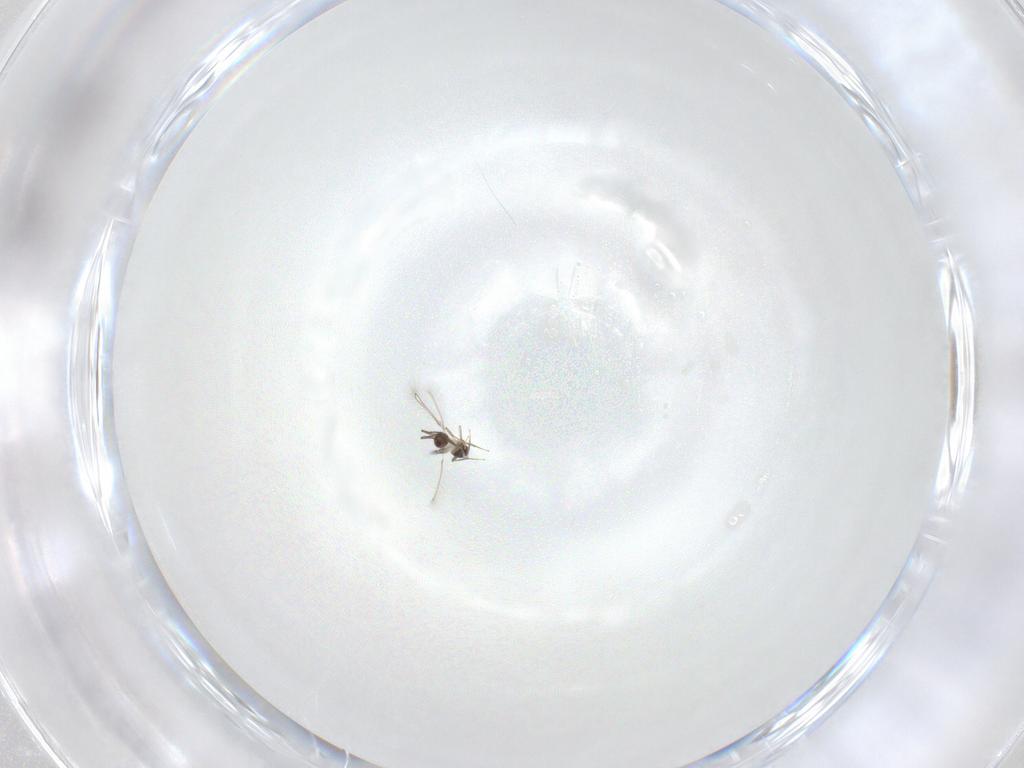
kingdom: Animalia
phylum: Arthropoda
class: Insecta
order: Hymenoptera
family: Mymaridae
